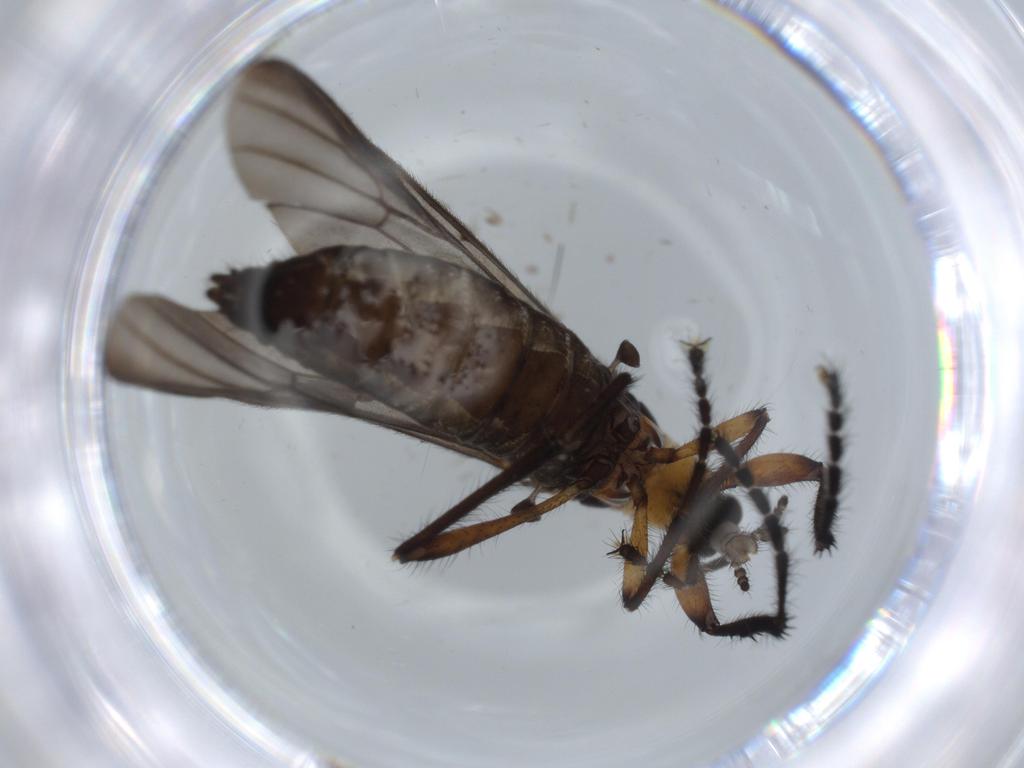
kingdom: Animalia
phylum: Arthropoda
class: Insecta
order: Diptera
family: Bibionidae
